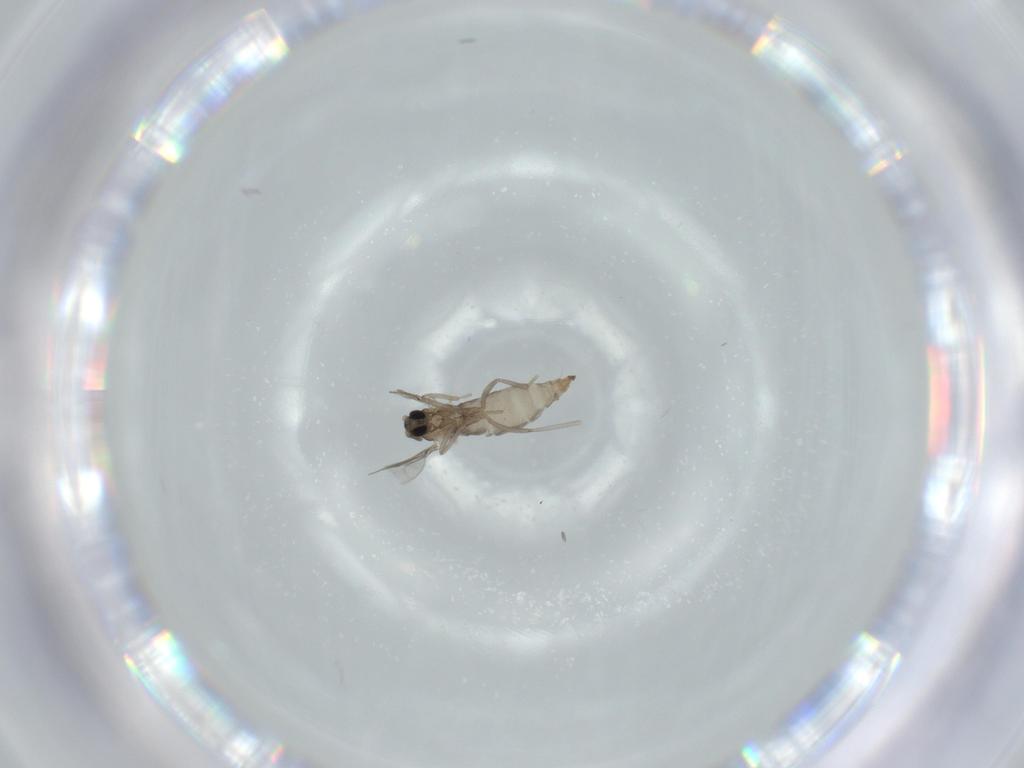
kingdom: Animalia
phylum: Arthropoda
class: Insecta
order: Diptera
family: Cecidomyiidae
